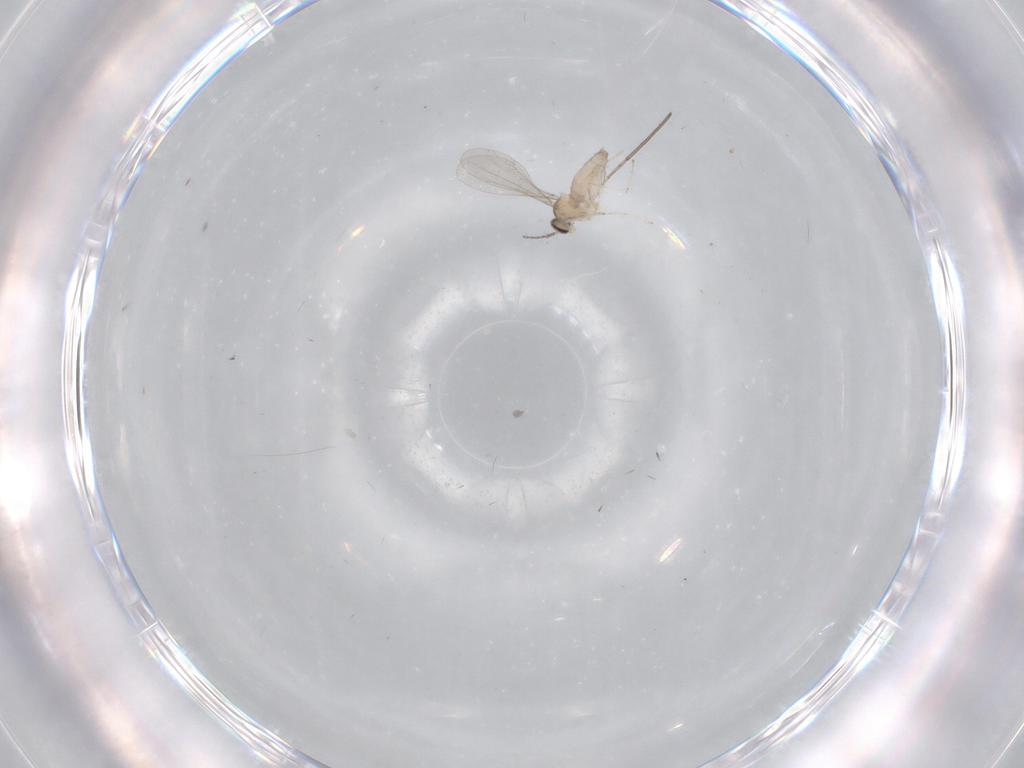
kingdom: Animalia
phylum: Arthropoda
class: Insecta
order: Diptera
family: Cecidomyiidae
